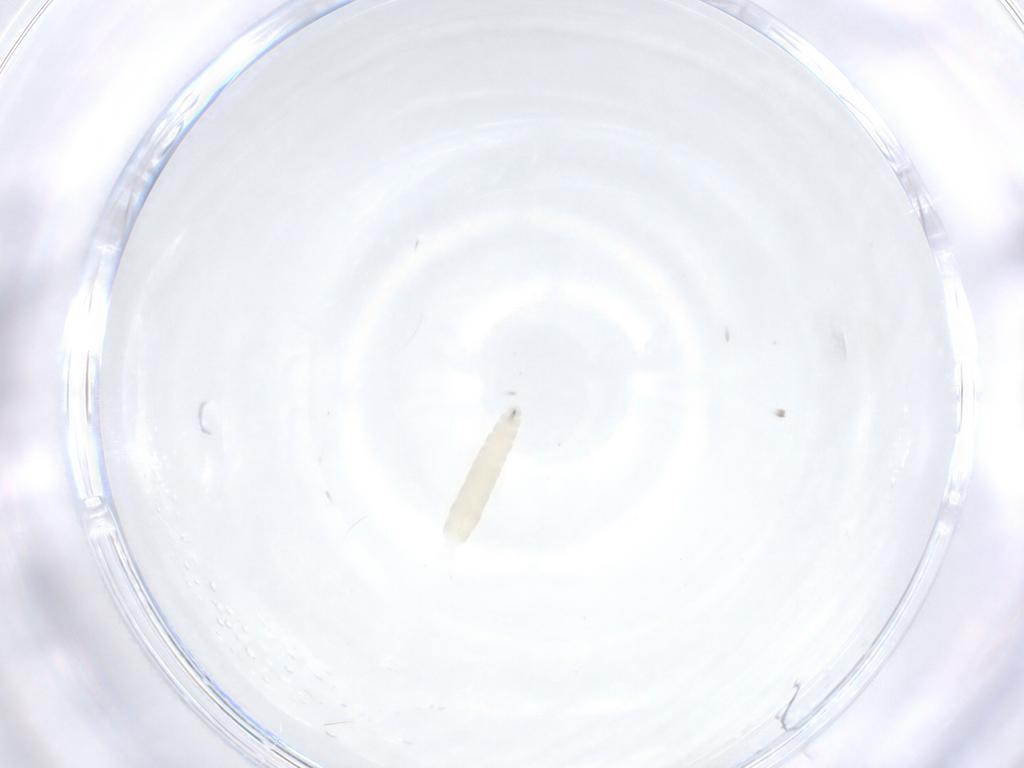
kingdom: Animalia
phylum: Arthropoda
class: Insecta
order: Diptera
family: Tachinidae
